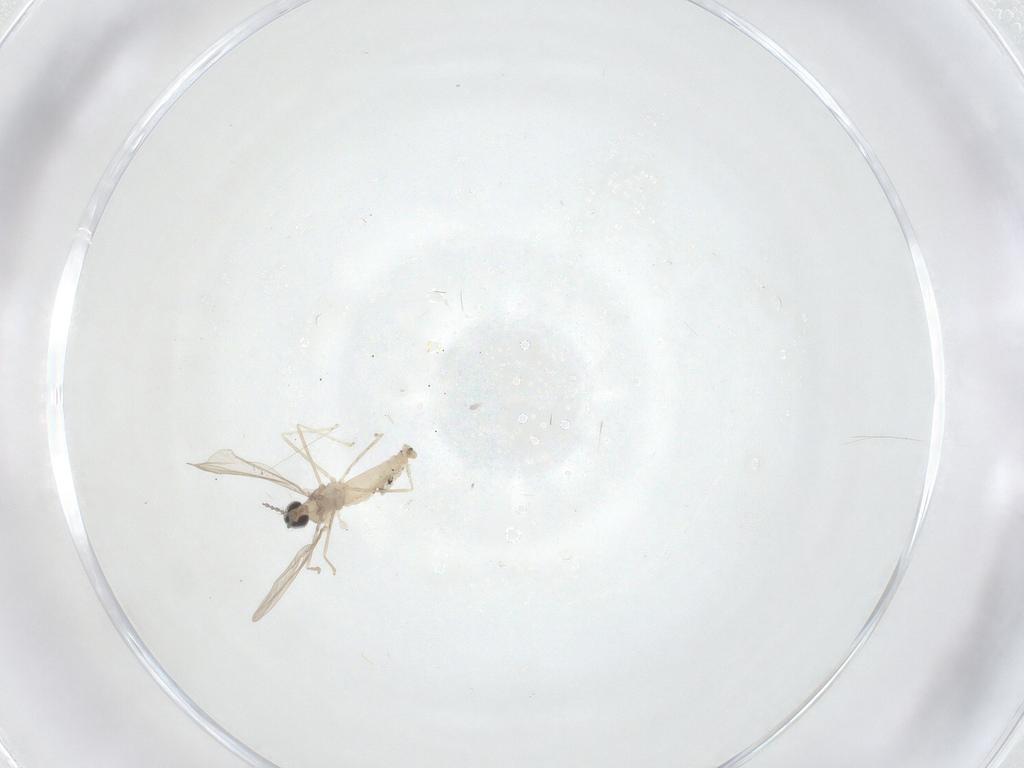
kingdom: Animalia
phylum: Arthropoda
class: Insecta
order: Diptera
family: Cecidomyiidae
